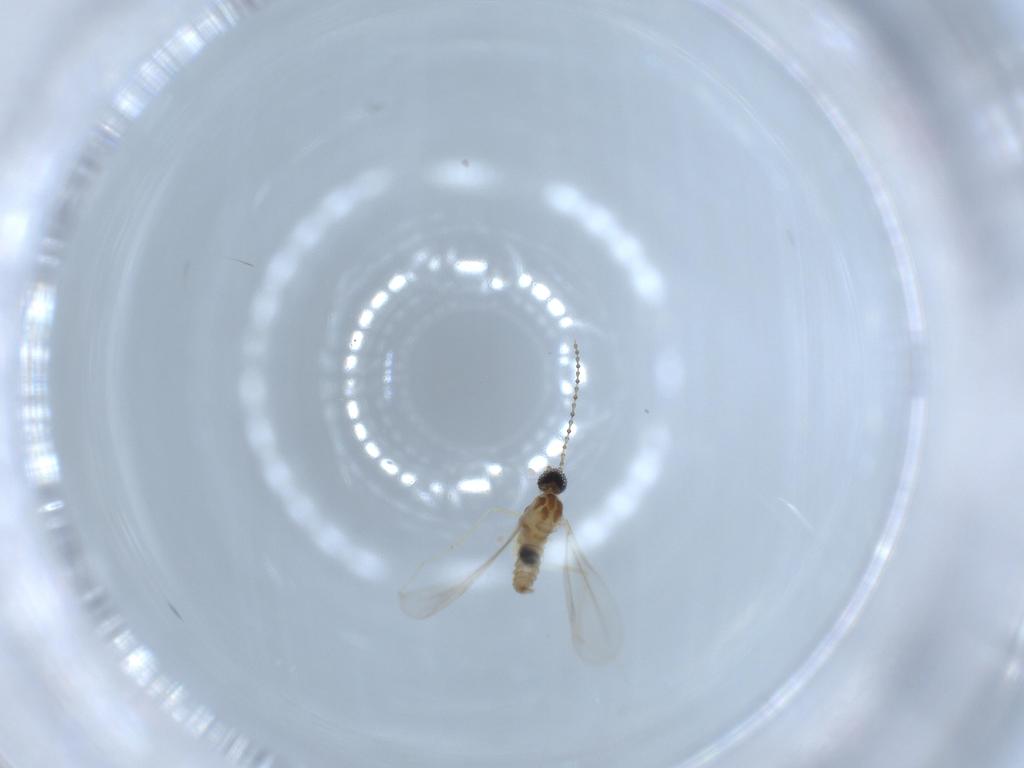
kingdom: Animalia
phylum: Arthropoda
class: Insecta
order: Diptera
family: Cecidomyiidae
